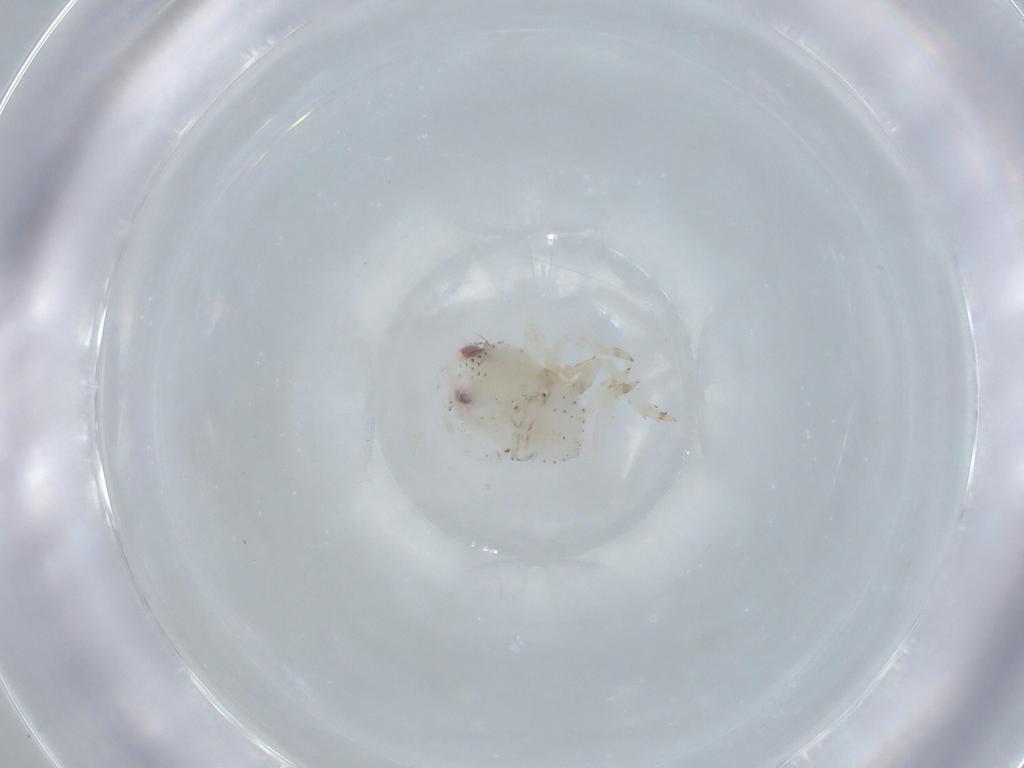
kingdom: Animalia
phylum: Arthropoda
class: Insecta
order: Hemiptera
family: Acanaloniidae
